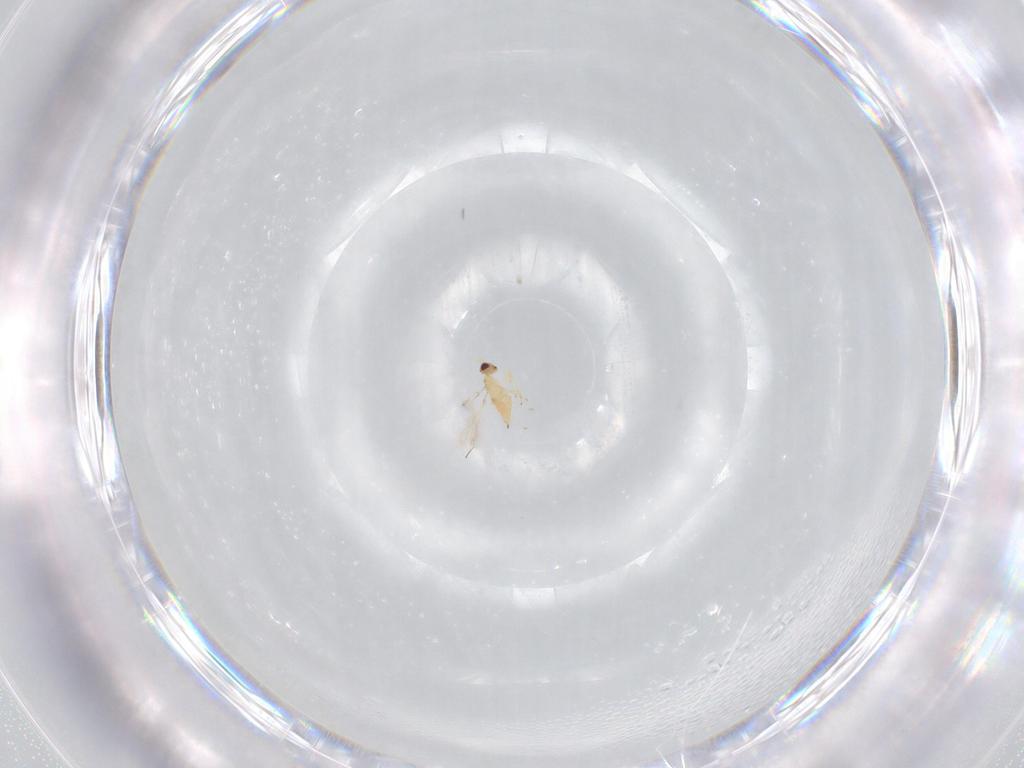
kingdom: Animalia
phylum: Arthropoda
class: Insecta
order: Hymenoptera
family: Mymaridae
